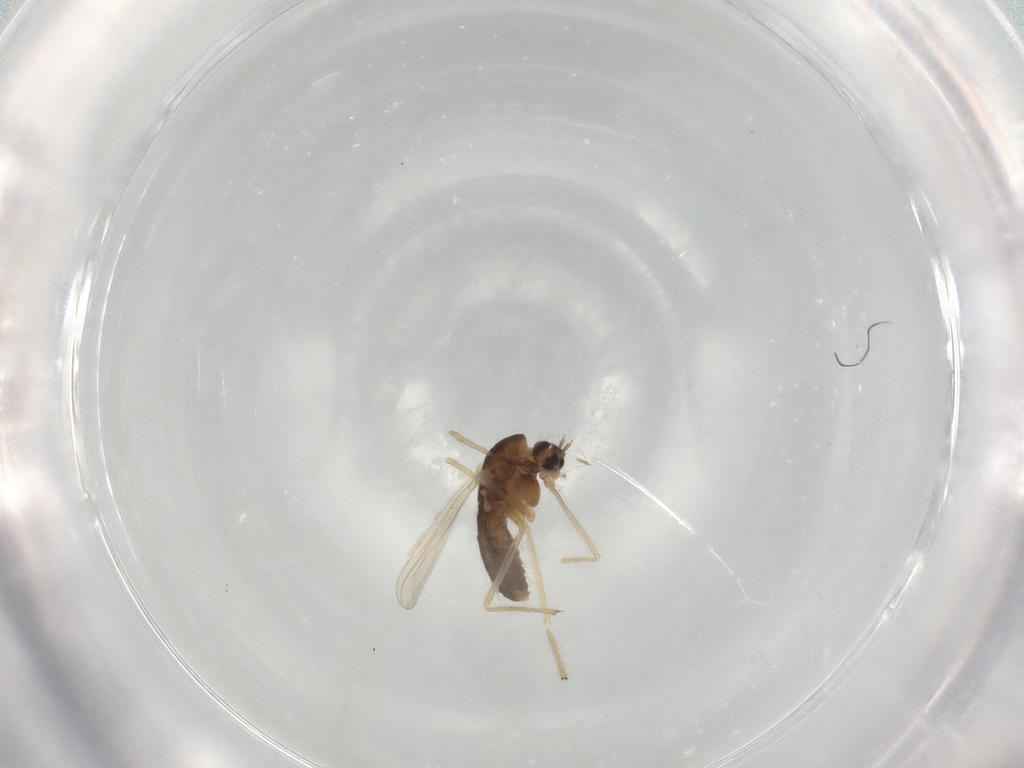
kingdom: Animalia
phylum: Arthropoda
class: Insecta
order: Diptera
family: Chironomidae
